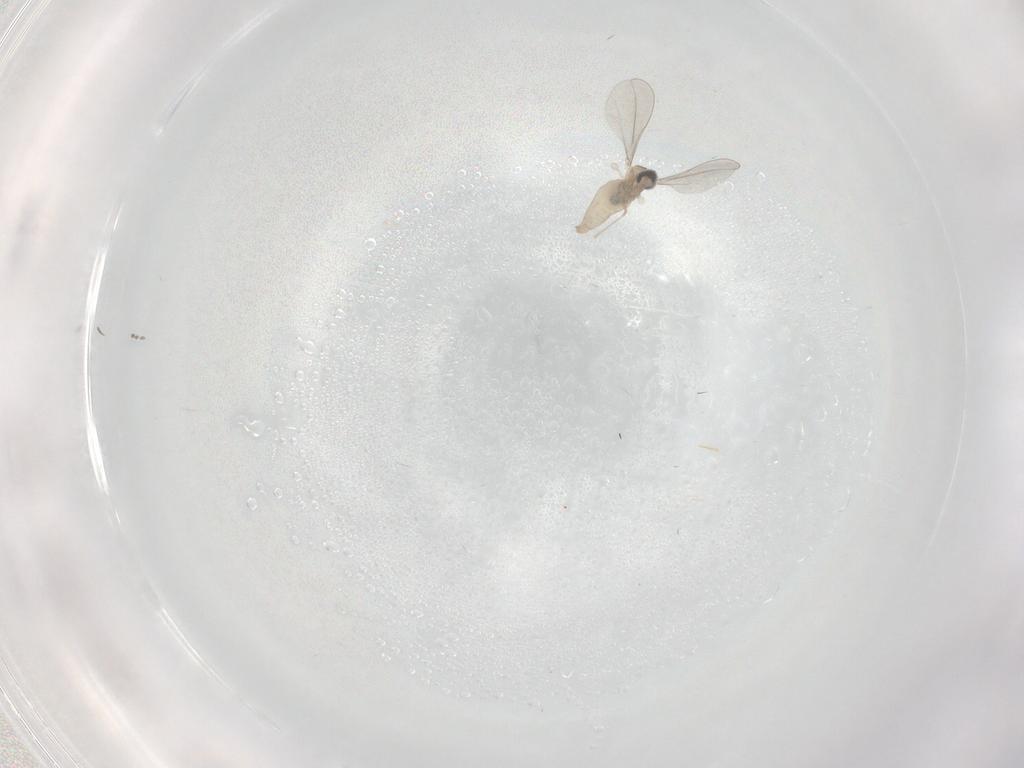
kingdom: Animalia
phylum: Arthropoda
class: Insecta
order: Diptera
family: Cecidomyiidae
